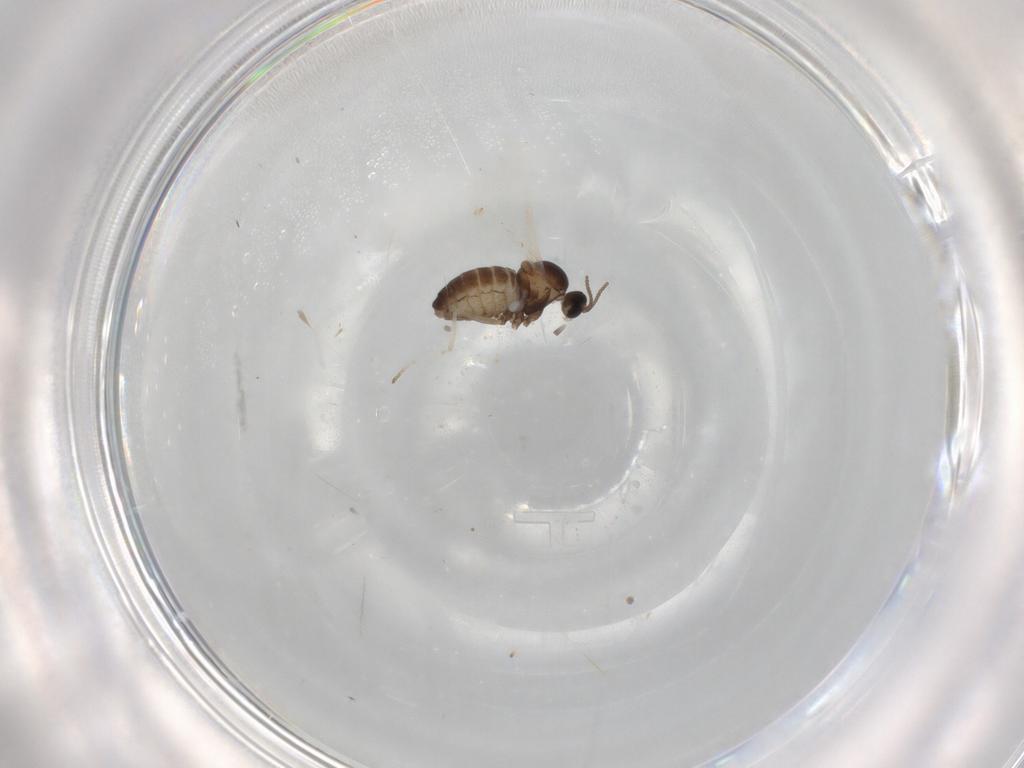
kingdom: Animalia
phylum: Arthropoda
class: Insecta
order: Diptera
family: Cecidomyiidae
